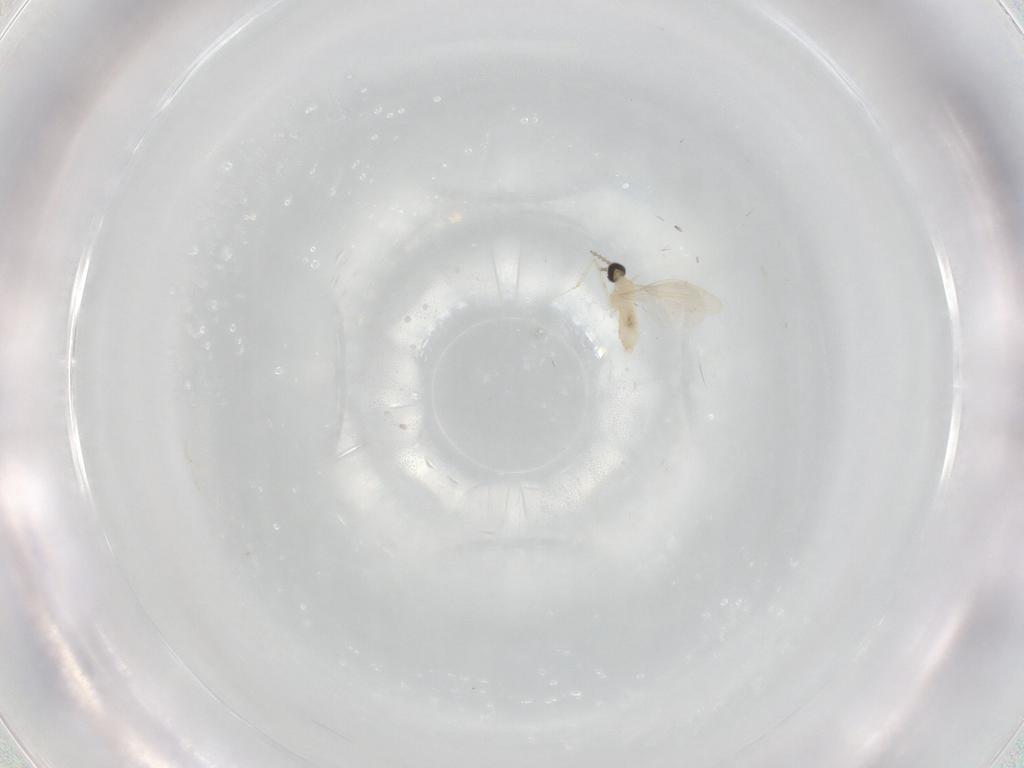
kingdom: Animalia
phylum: Arthropoda
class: Insecta
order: Diptera
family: Cecidomyiidae
